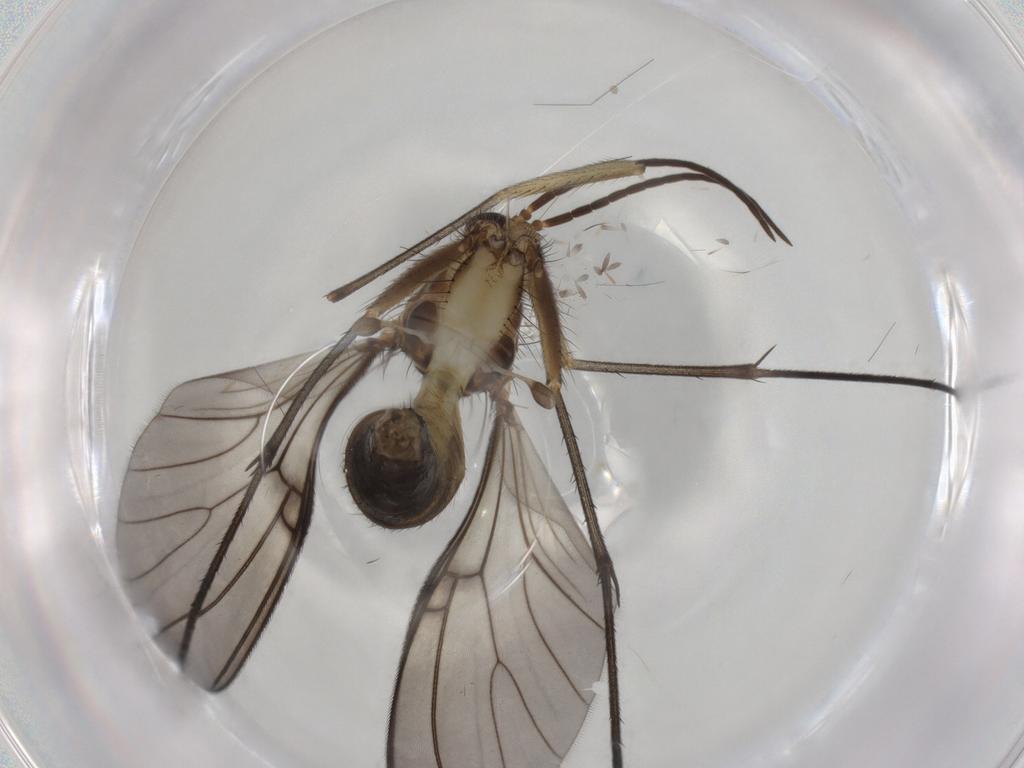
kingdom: Animalia
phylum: Arthropoda
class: Insecta
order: Diptera
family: Mycetophilidae
